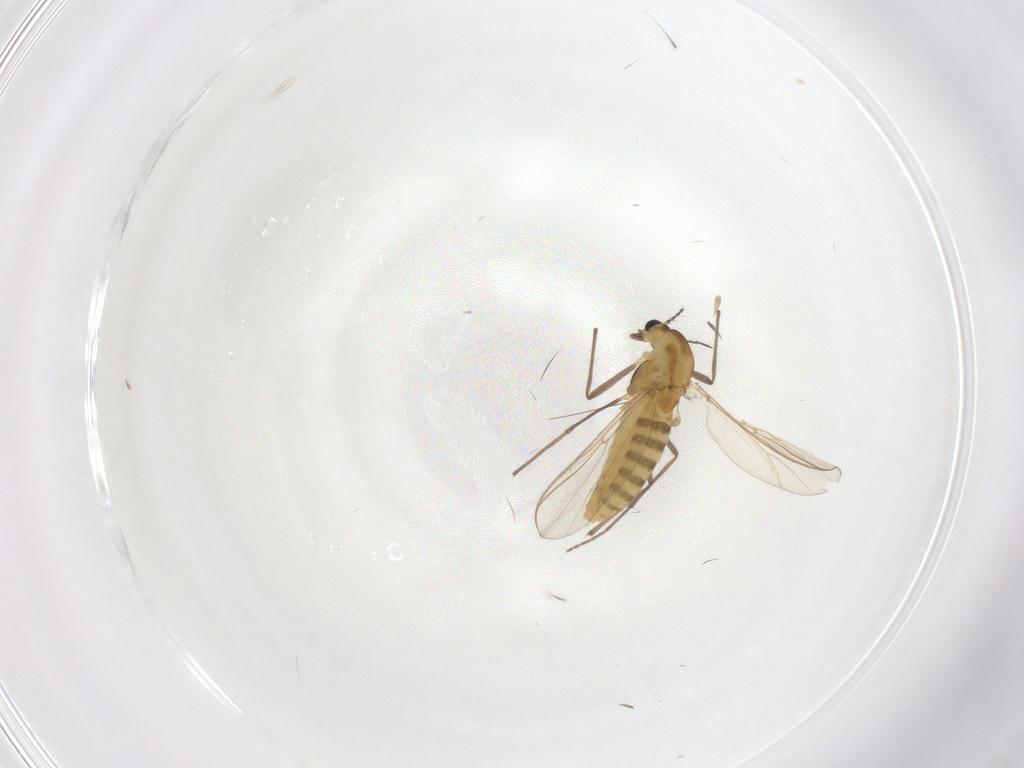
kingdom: Animalia
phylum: Arthropoda
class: Insecta
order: Diptera
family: Chironomidae
